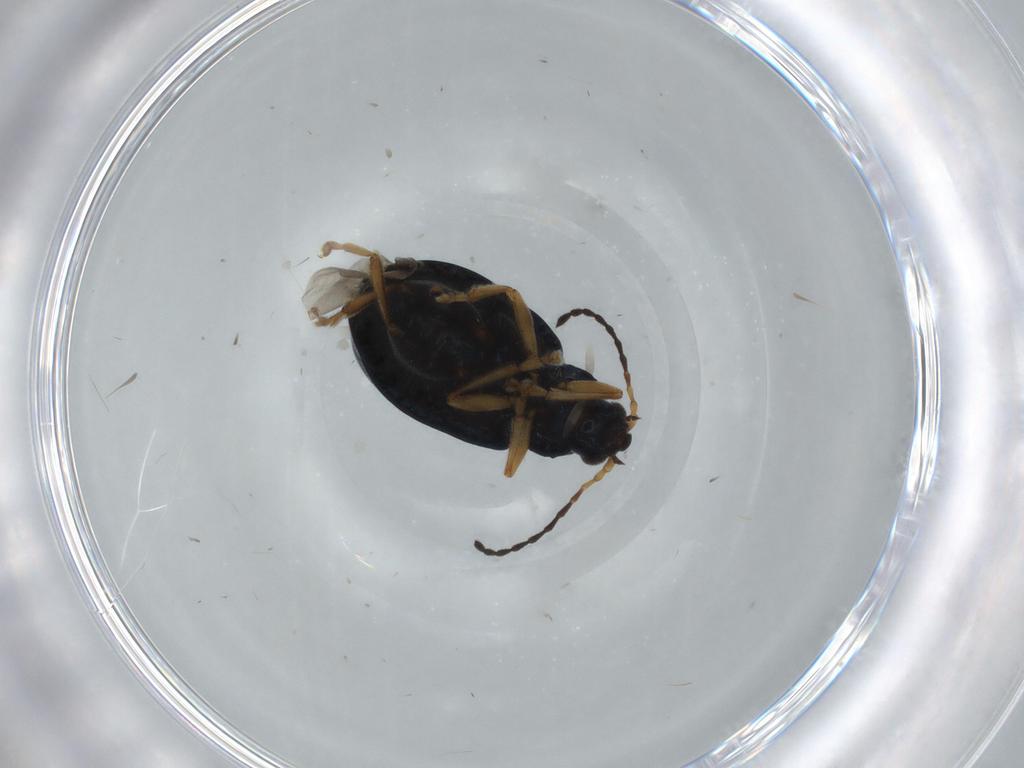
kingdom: Animalia
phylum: Arthropoda
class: Insecta
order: Coleoptera
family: Chrysomelidae
